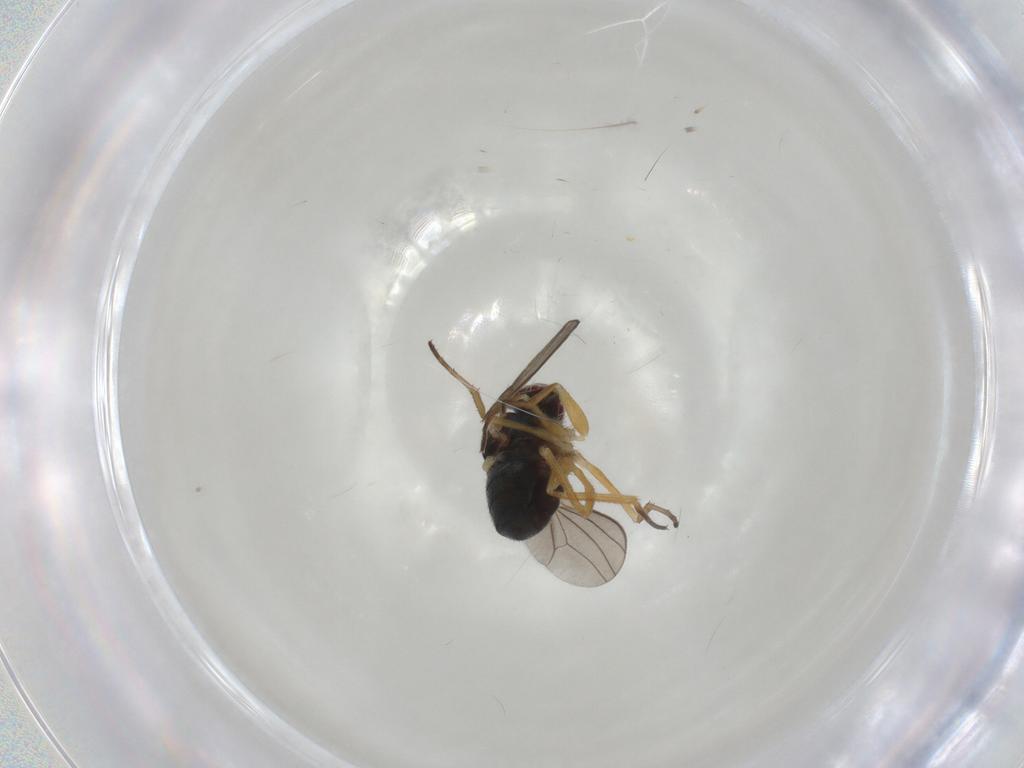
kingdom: Animalia
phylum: Arthropoda
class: Insecta
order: Diptera
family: Dolichopodidae
